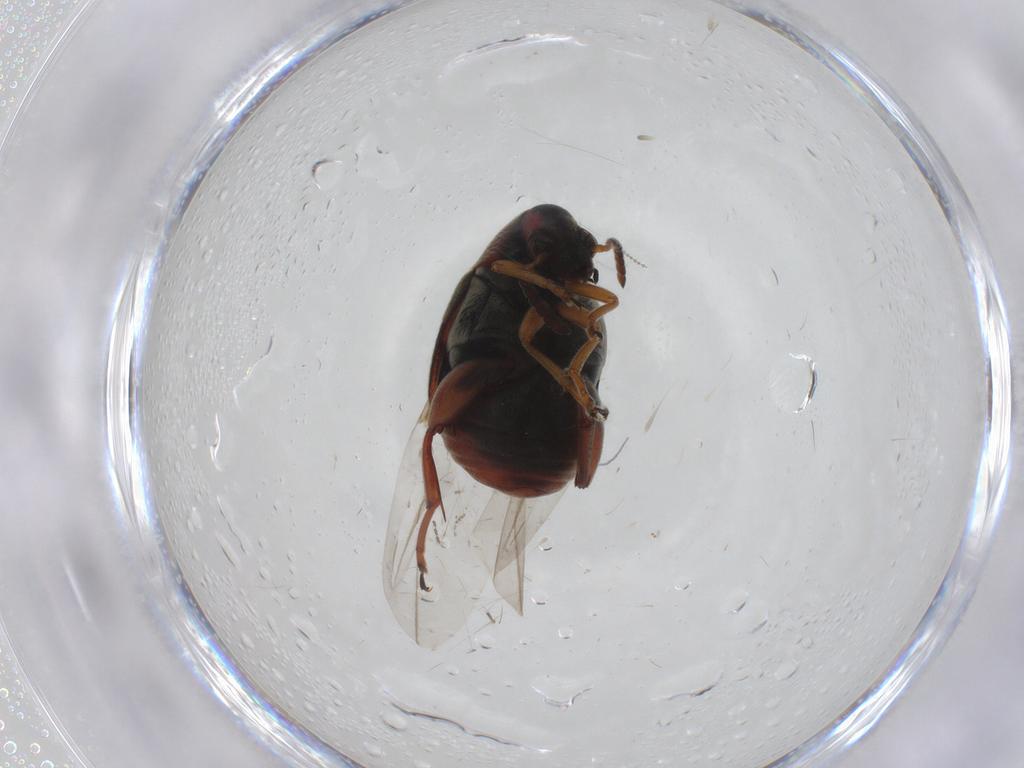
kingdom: Animalia
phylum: Arthropoda
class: Insecta
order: Coleoptera
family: Chrysomelidae
